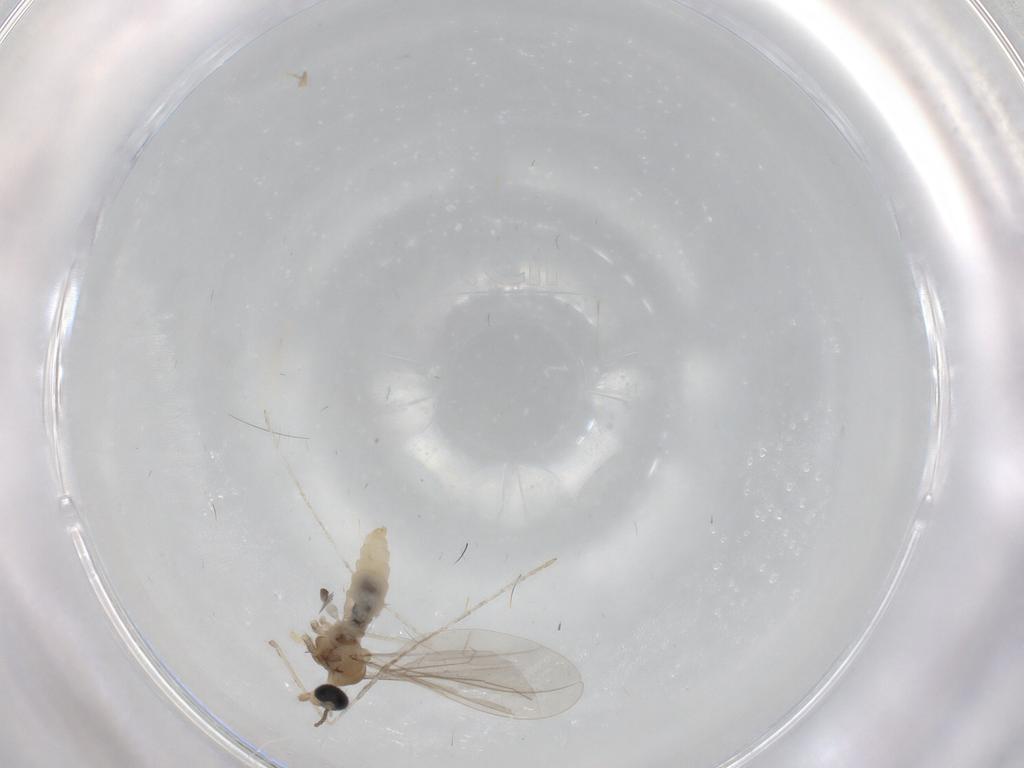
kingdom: Animalia
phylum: Arthropoda
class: Insecta
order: Diptera
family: Cecidomyiidae
